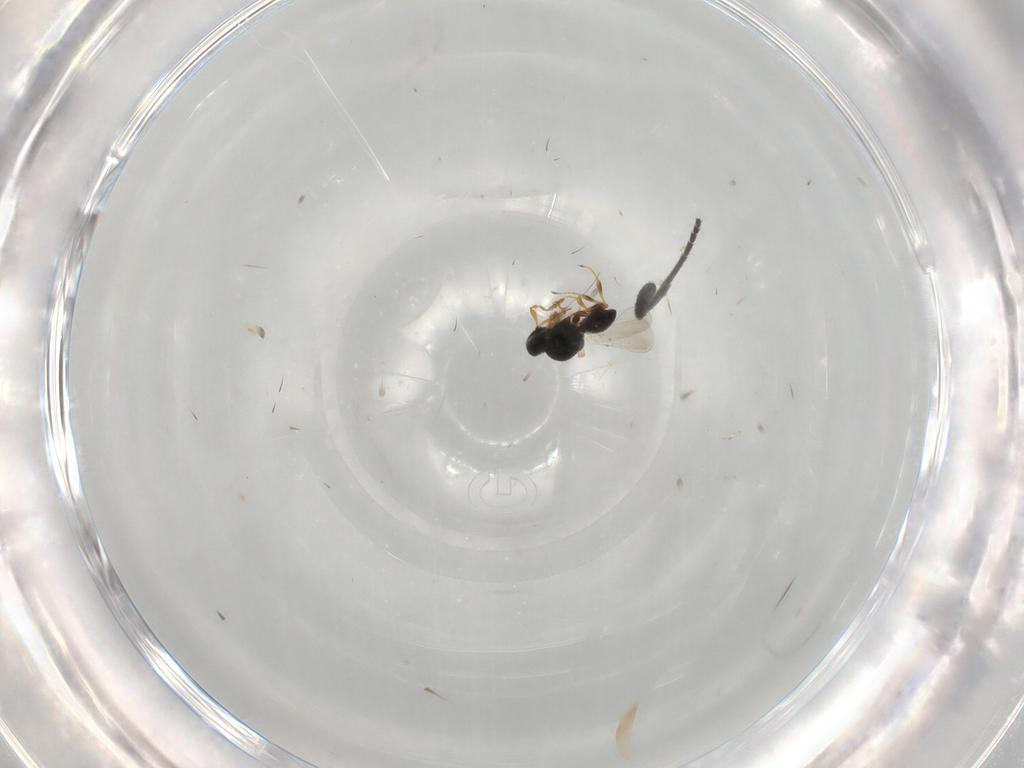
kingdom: Animalia
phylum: Arthropoda
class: Insecta
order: Hymenoptera
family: Platygastridae
